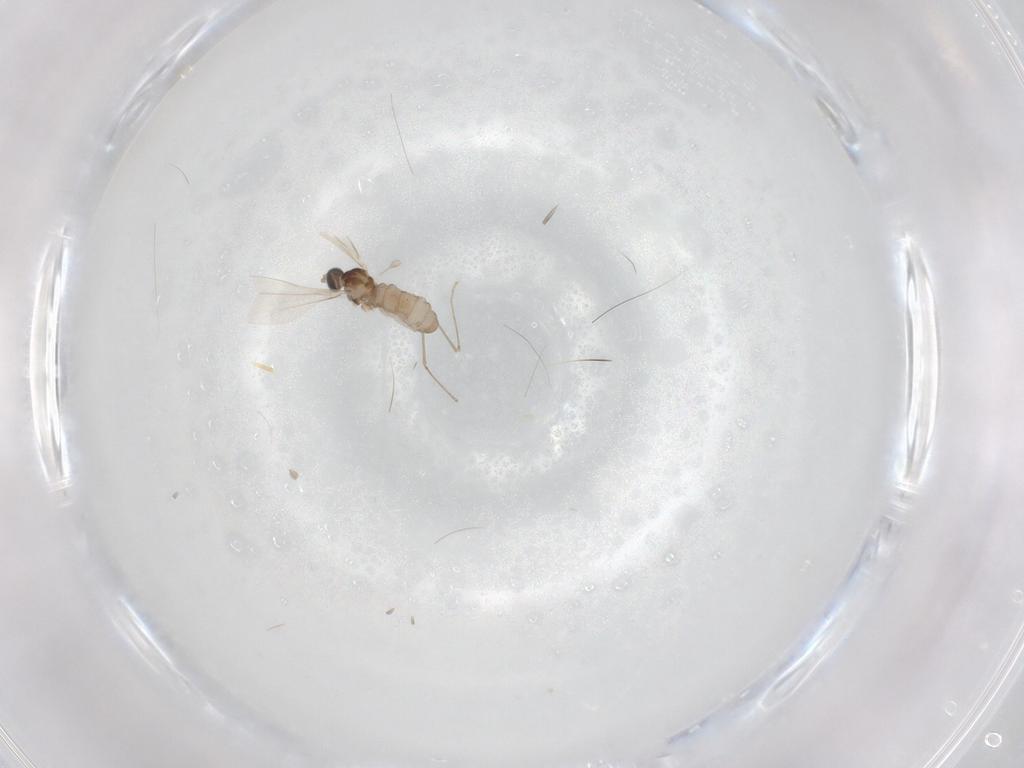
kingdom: Animalia
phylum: Arthropoda
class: Insecta
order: Diptera
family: Cecidomyiidae
